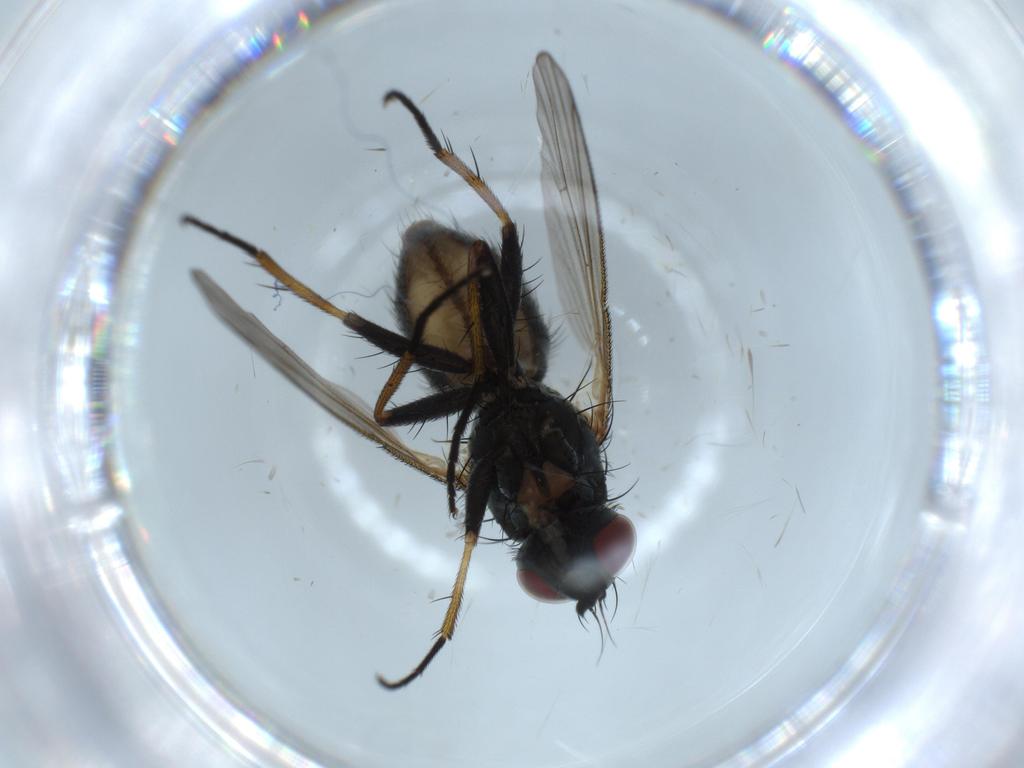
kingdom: Animalia
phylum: Arthropoda
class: Insecta
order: Diptera
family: Muscidae
